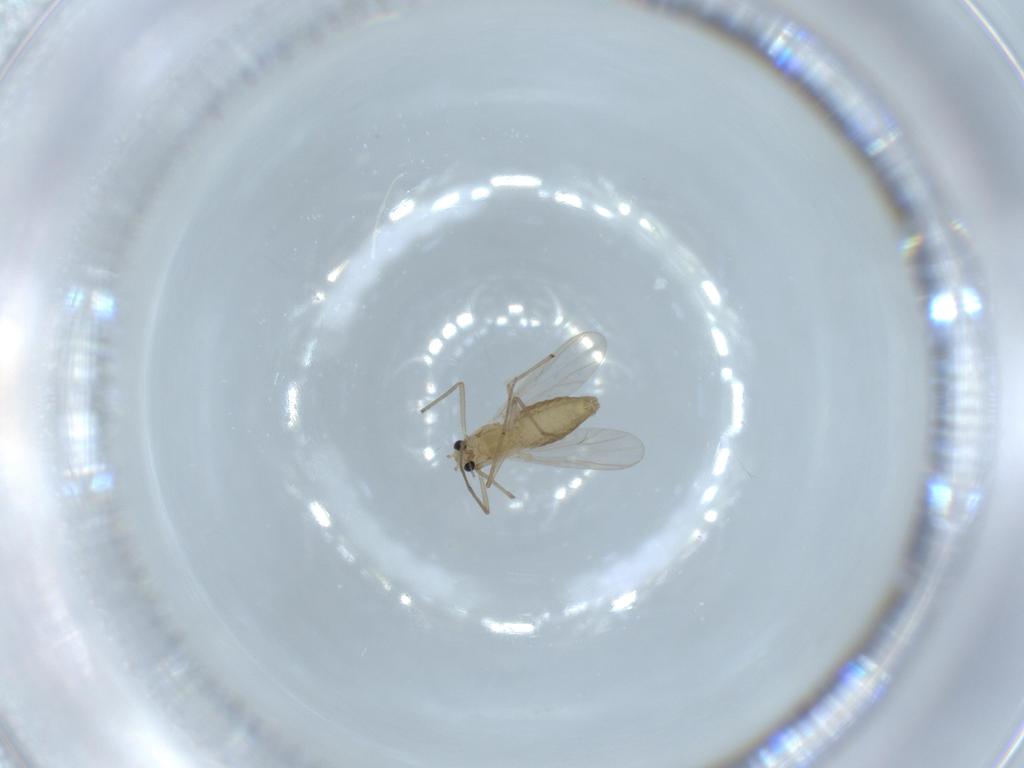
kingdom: Animalia
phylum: Arthropoda
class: Insecta
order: Diptera
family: Chironomidae
